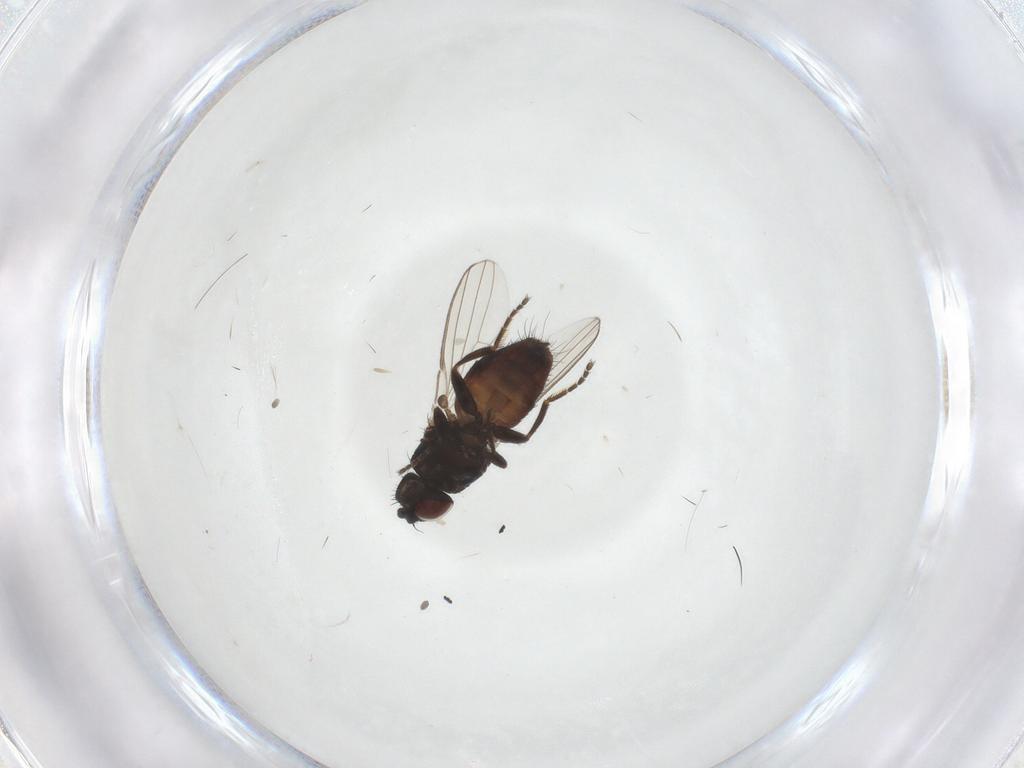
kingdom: Animalia
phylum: Arthropoda
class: Insecta
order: Diptera
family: Milichiidae
